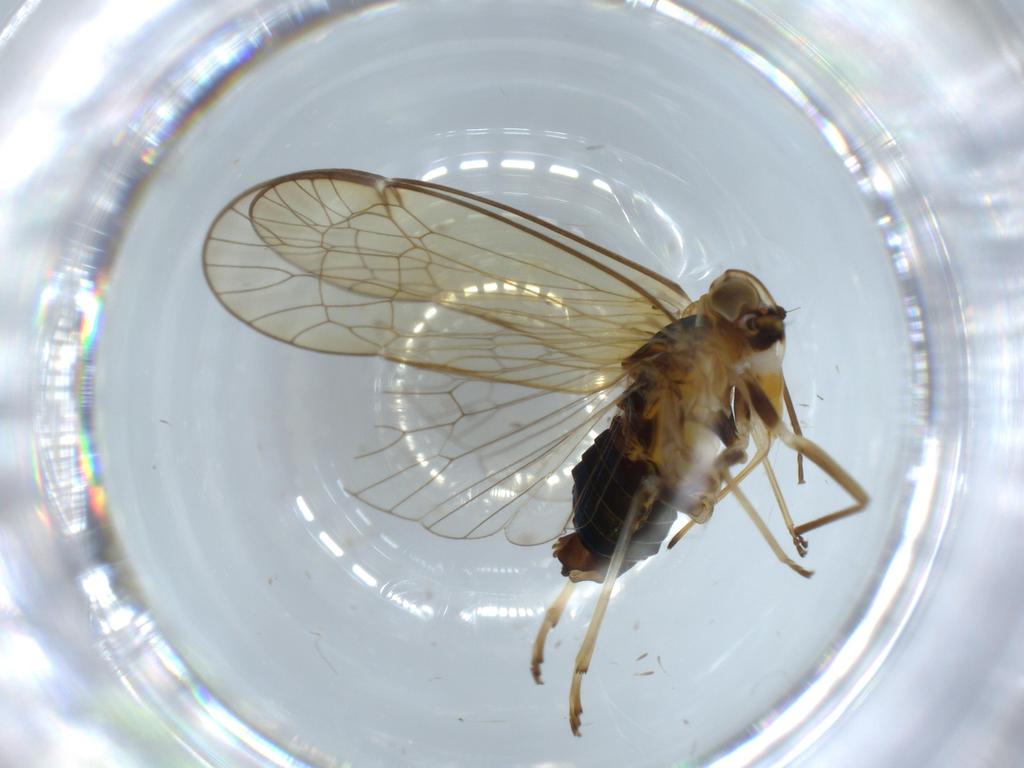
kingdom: Animalia
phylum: Arthropoda
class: Insecta
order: Hemiptera
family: Kinnaridae
